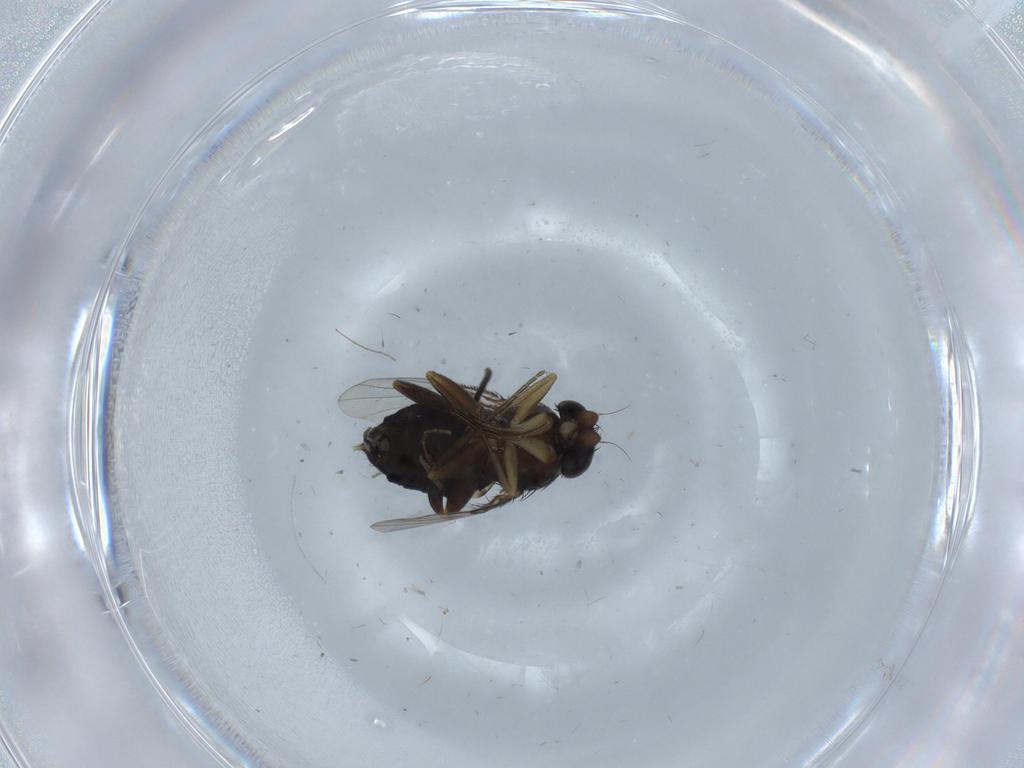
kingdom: Animalia
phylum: Arthropoda
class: Insecta
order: Diptera
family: Phoridae
